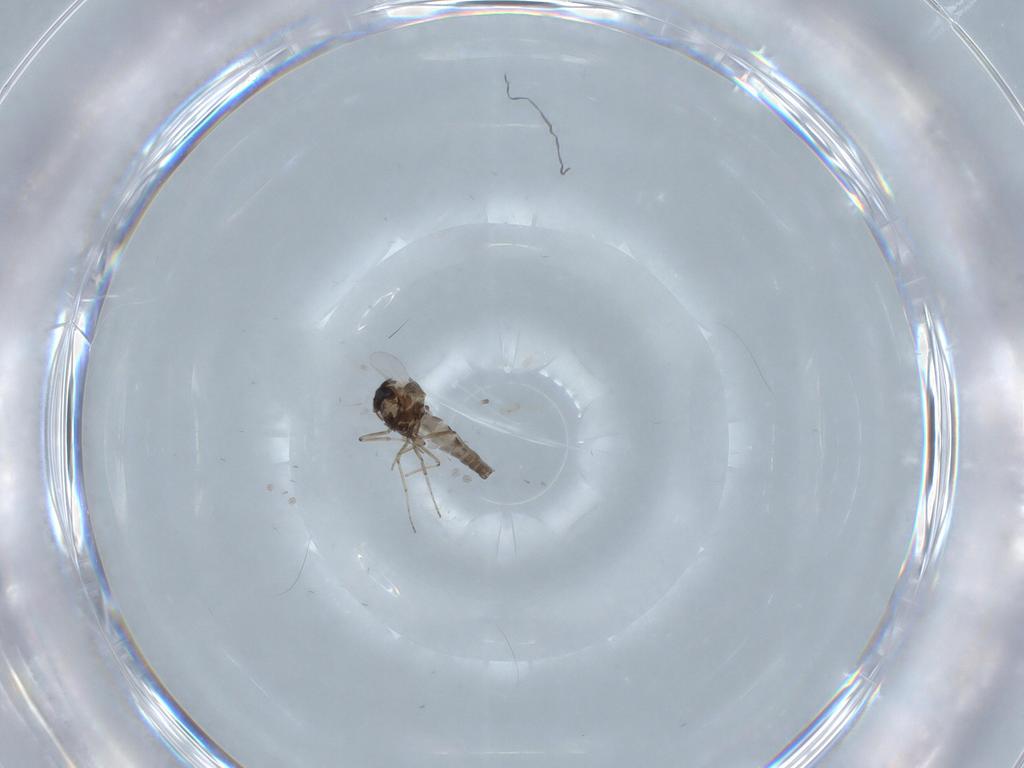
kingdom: Animalia
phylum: Arthropoda
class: Insecta
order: Diptera
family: Ceratopogonidae
